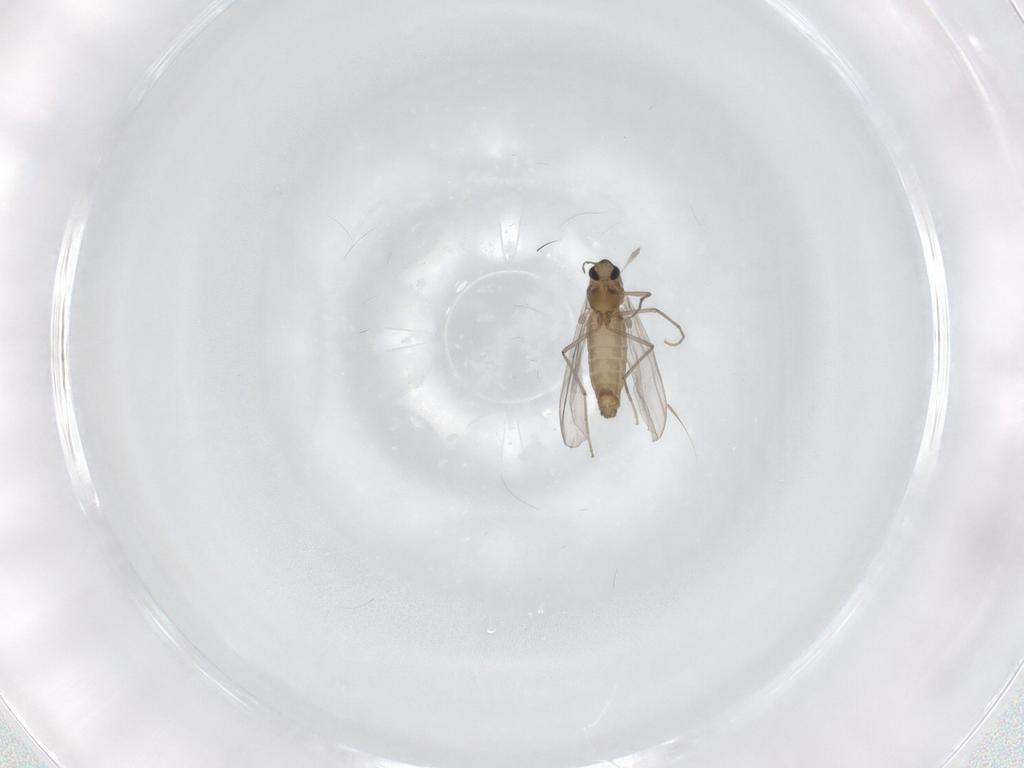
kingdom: Animalia
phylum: Arthropoda
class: Insecta
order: Diptera
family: Chironomidae
